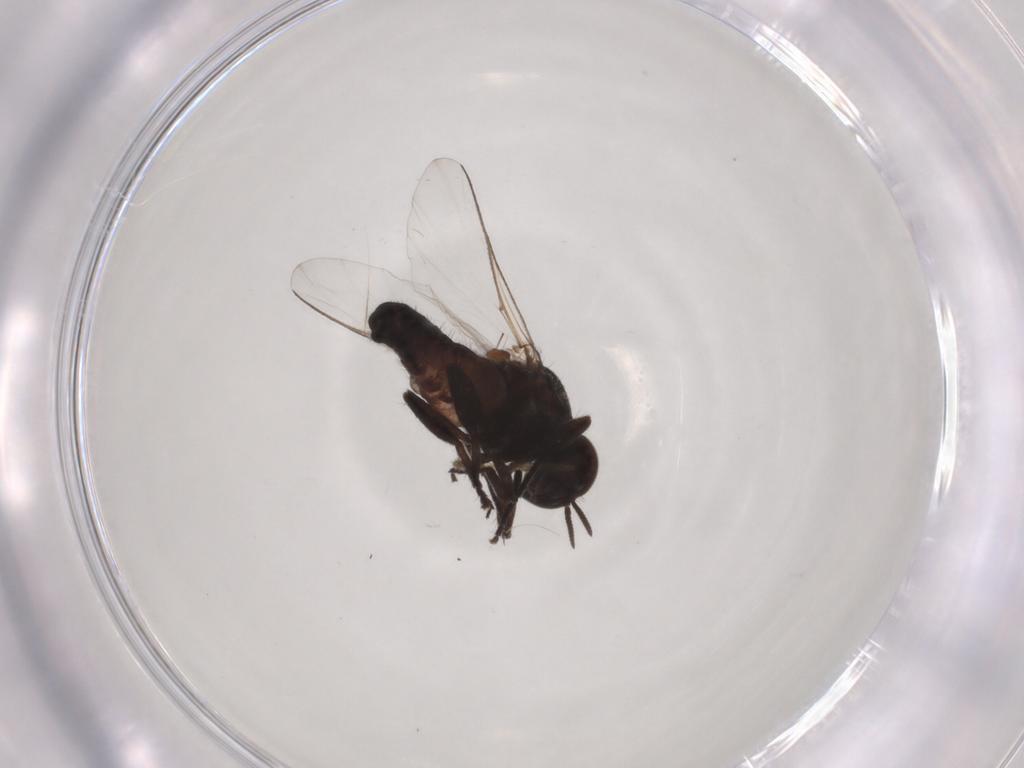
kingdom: Animalia
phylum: Arthropoda
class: Insecta
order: Diptera
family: Simuliidae
